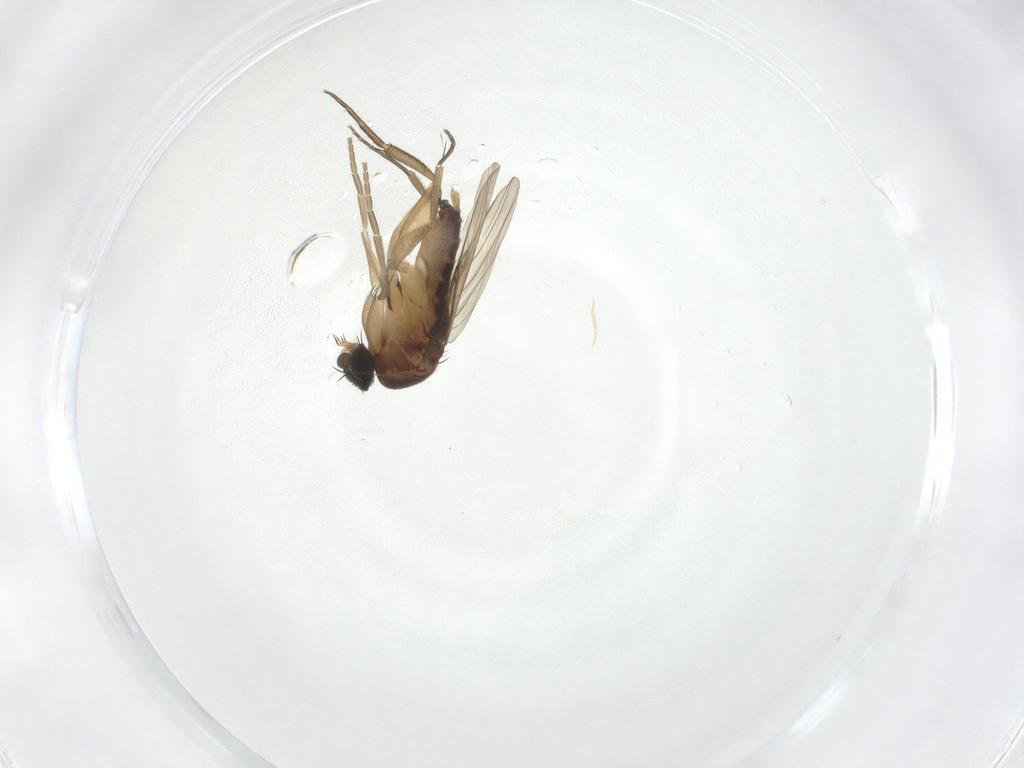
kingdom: Animalia
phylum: Arthropoda
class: Insecta
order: Diptera
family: Phoridae
